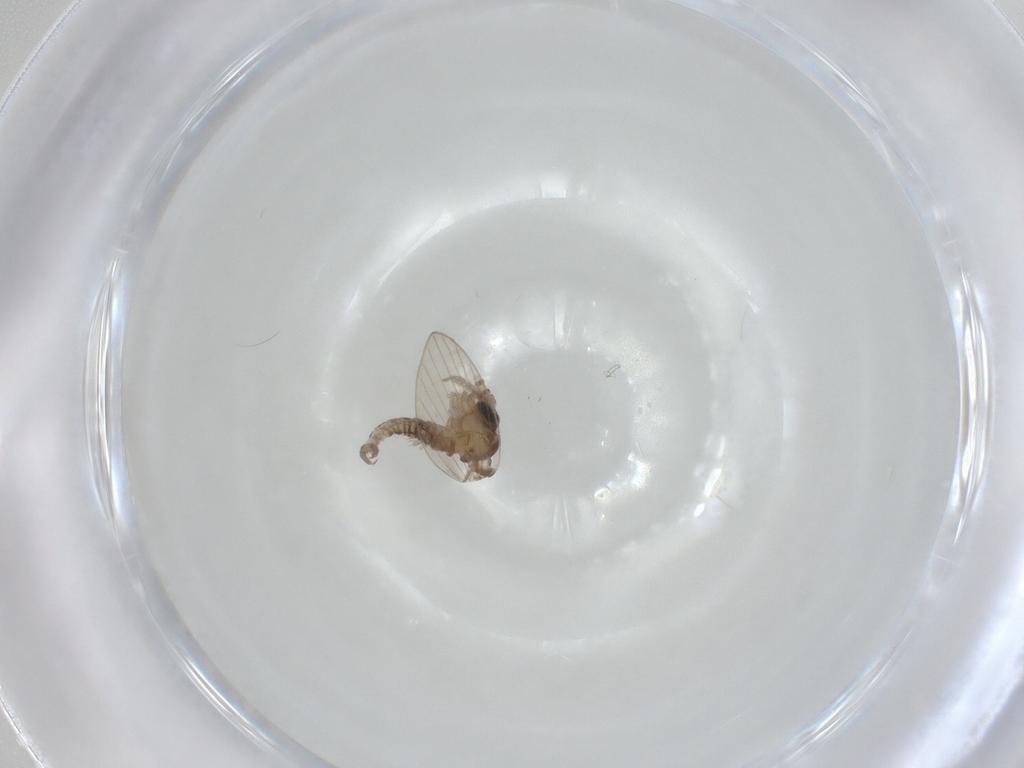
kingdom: Animalia
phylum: Arthropoda
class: Insecta
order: Diptera
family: Psychodidae
